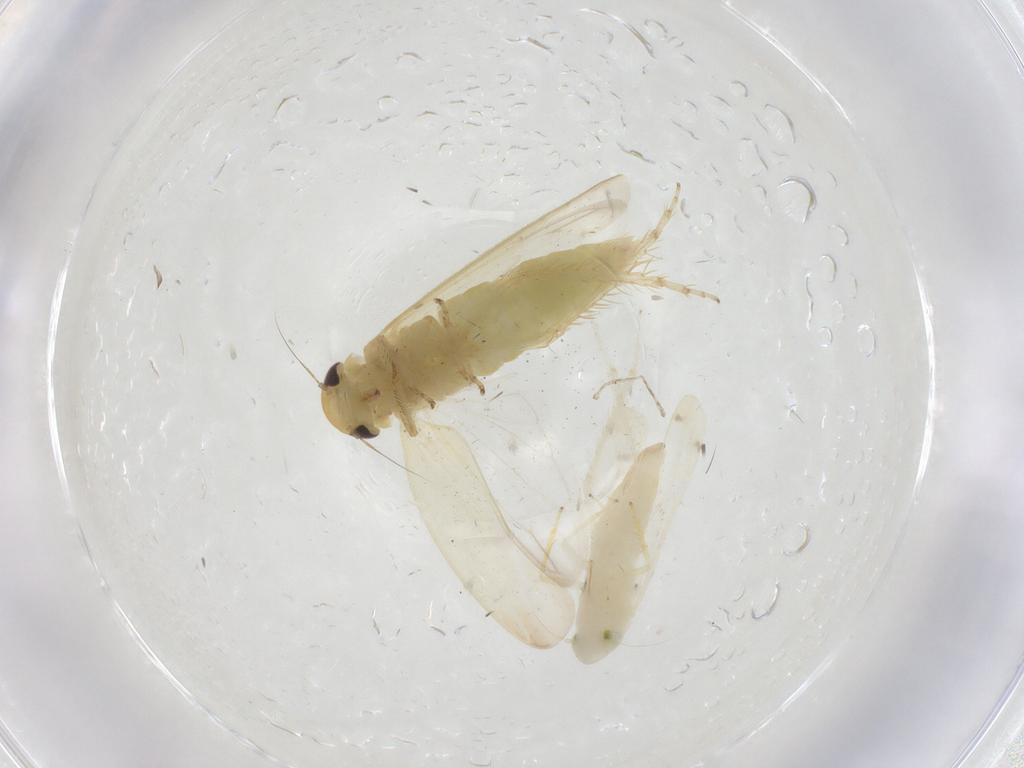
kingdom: Animalia
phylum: Arthropoda
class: Insecta
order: Hemiptera
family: Cicadellidae
